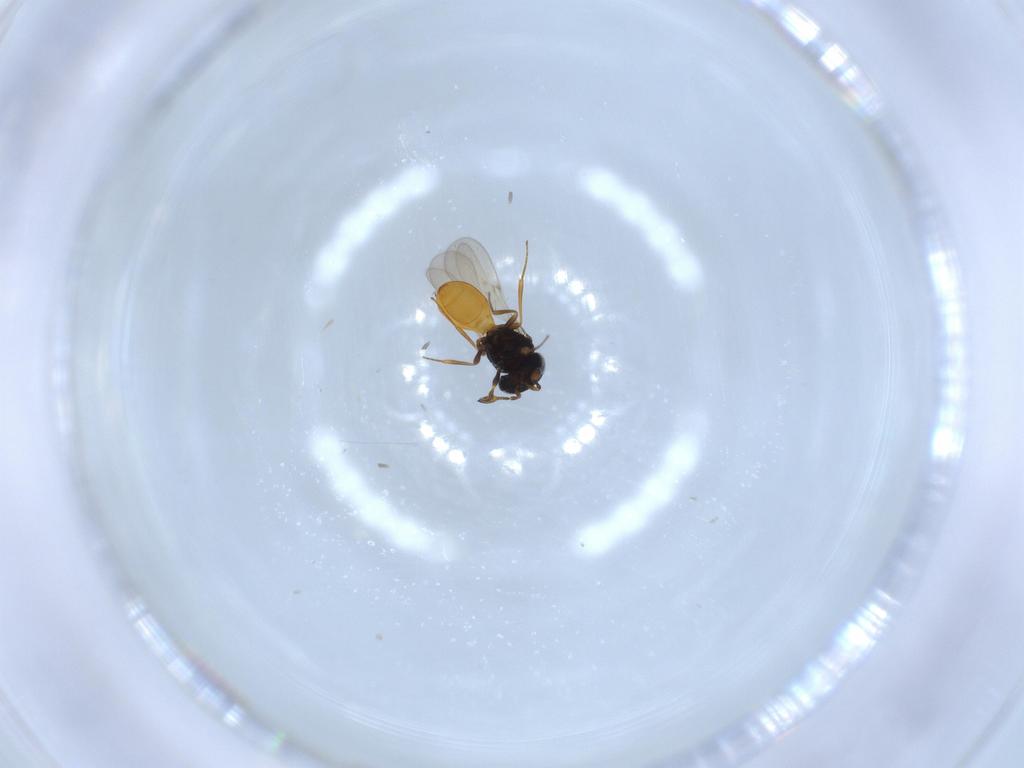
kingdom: Animalia
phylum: Arthropoda
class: Insecta
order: Hymenoptera
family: Scelionidae
